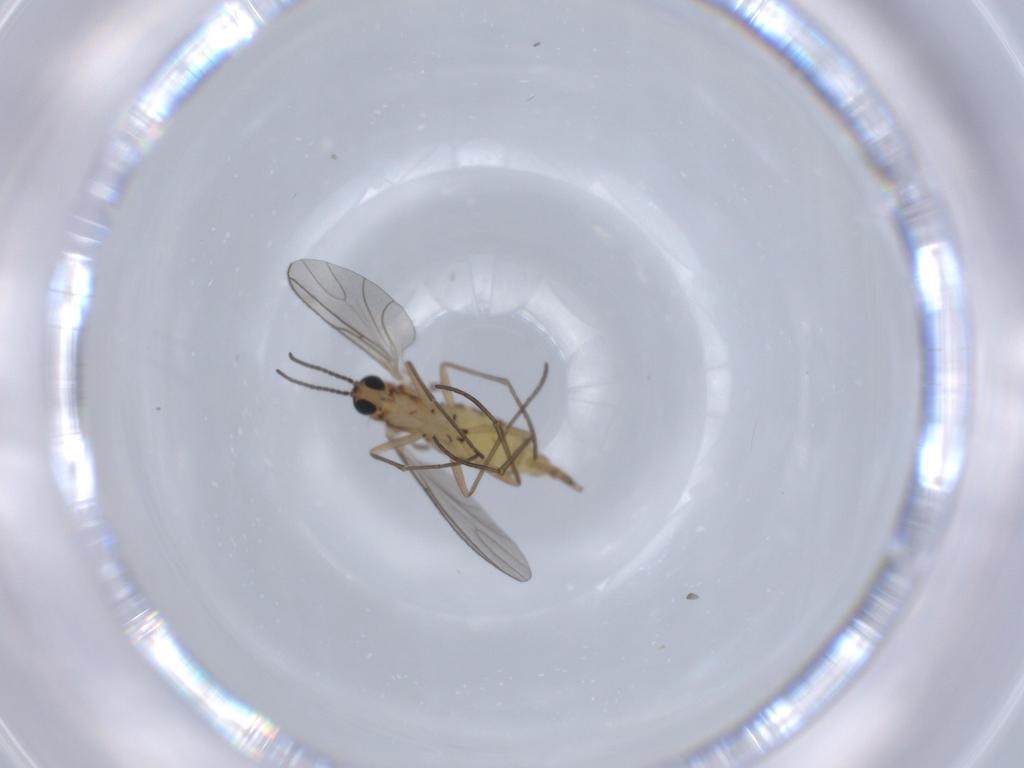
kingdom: Animalia
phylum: Arthropoda
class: Insecta
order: Diptera
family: Sciaridae
